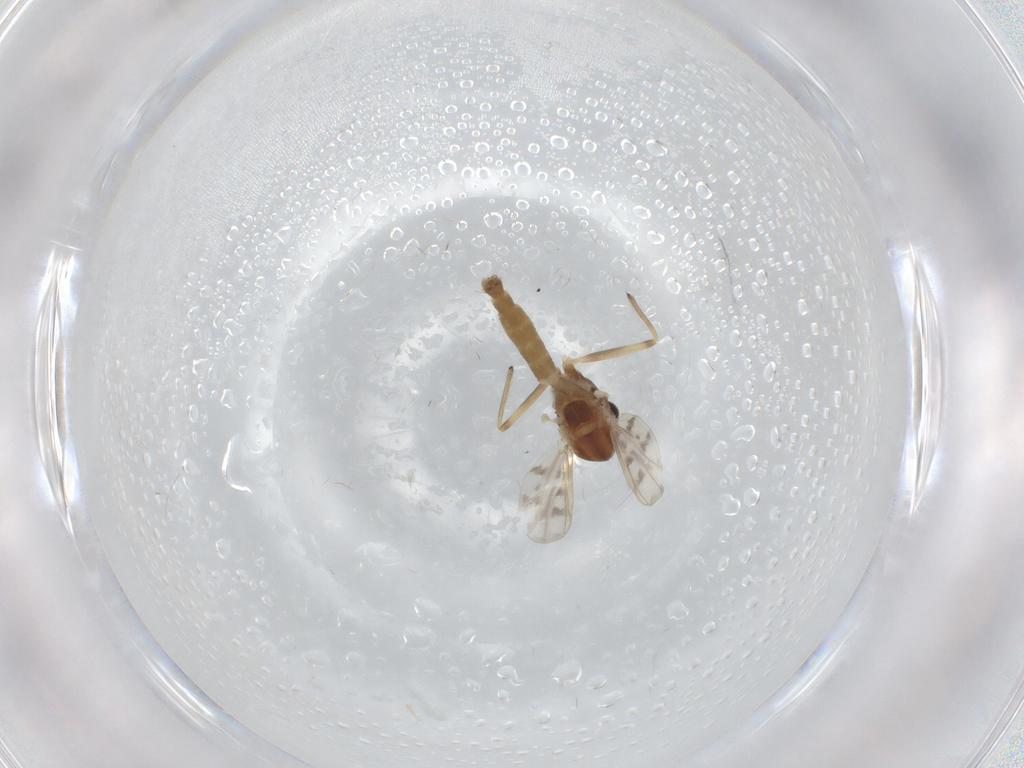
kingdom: Animalia
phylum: Arthropoda
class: Insecta
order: Diptera
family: Chironomidae
